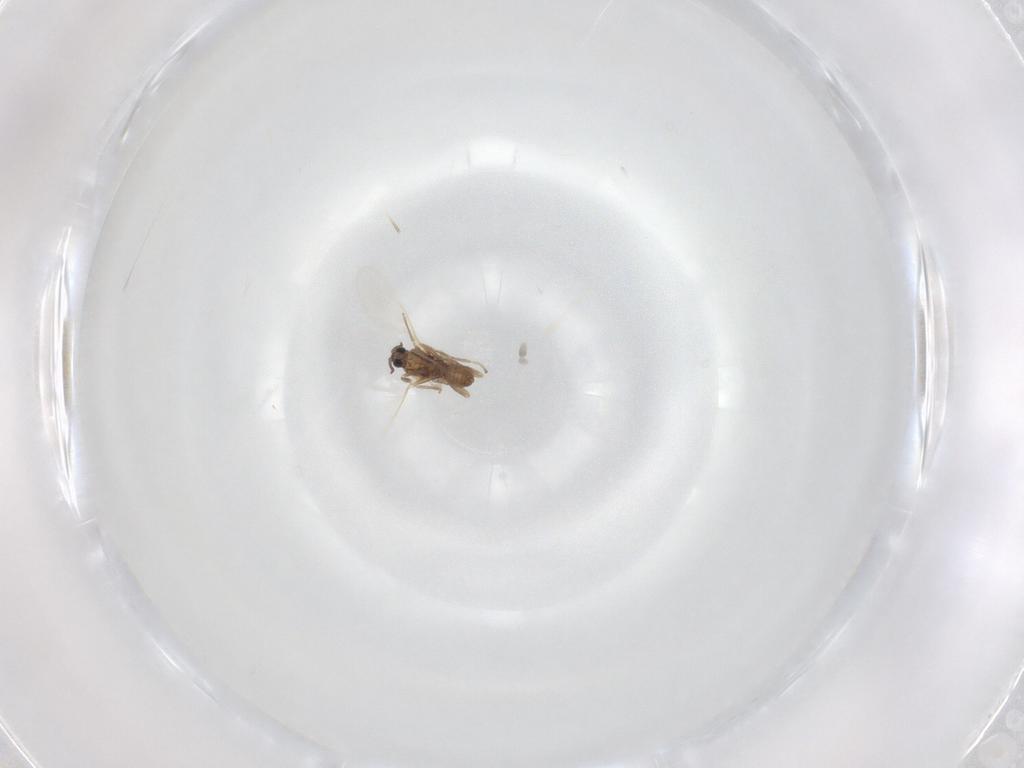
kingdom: Animalia
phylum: Arthropoda
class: Insecta
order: Diptera
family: Cecidomyiidae
